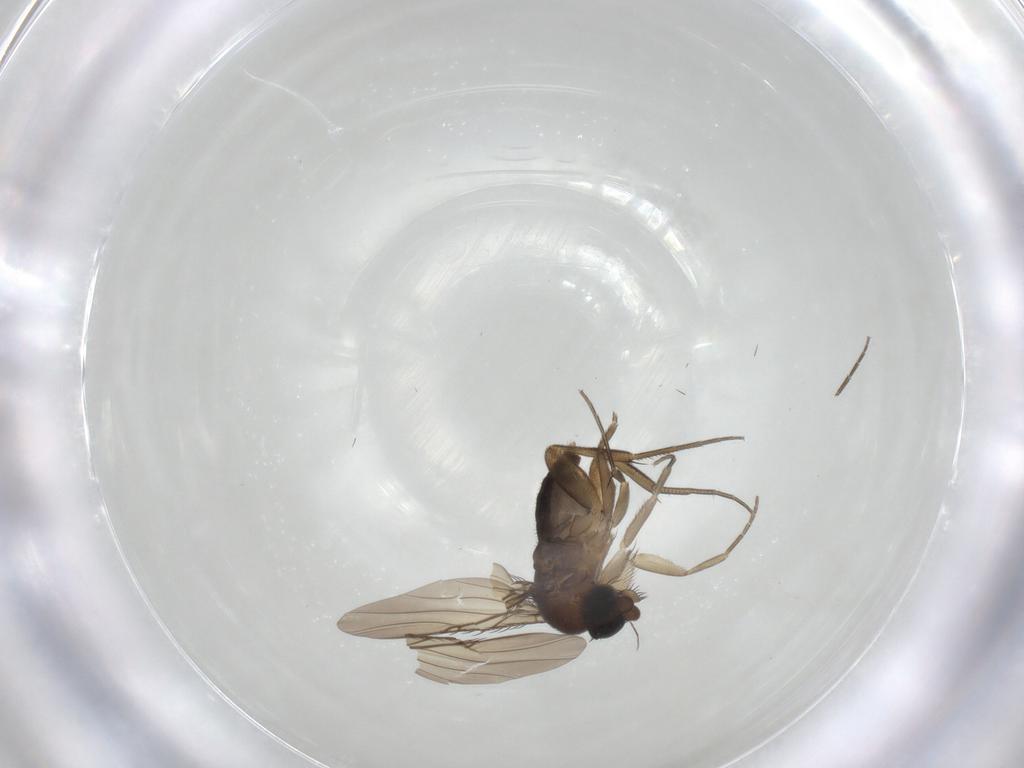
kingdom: Animalia
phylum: Arthropoda
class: Insecta
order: Diptera
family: Phoridae
